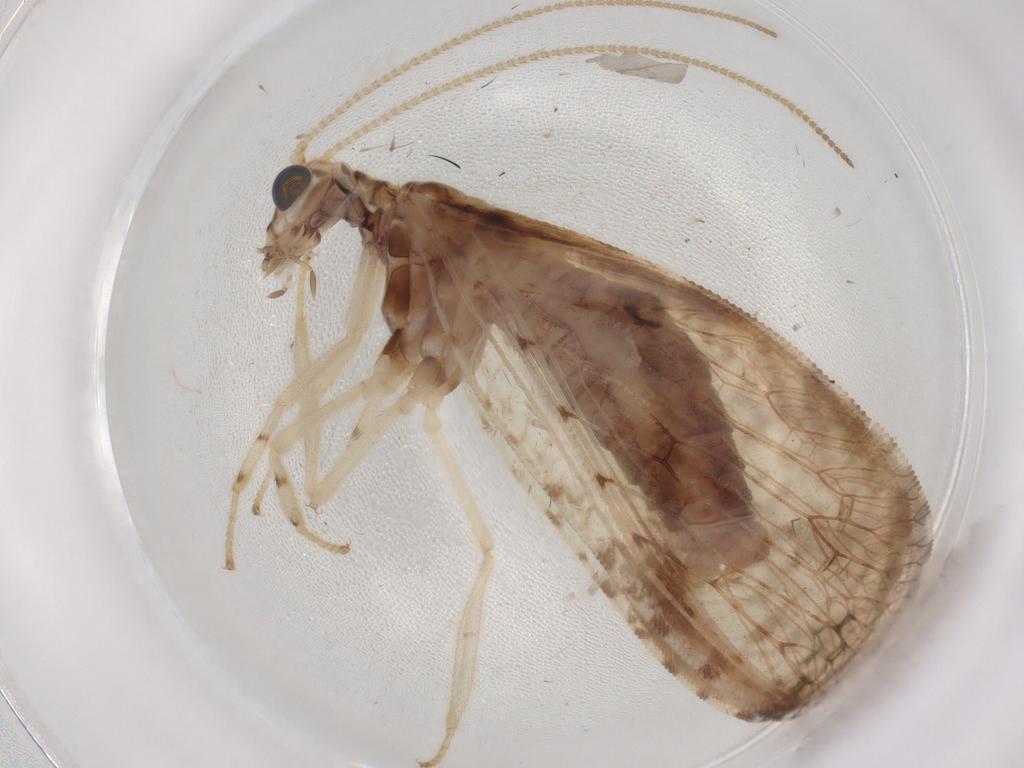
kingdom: Animalia
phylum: Arthropoda
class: Insecta
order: Neuroptera
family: Hemerobiidae
